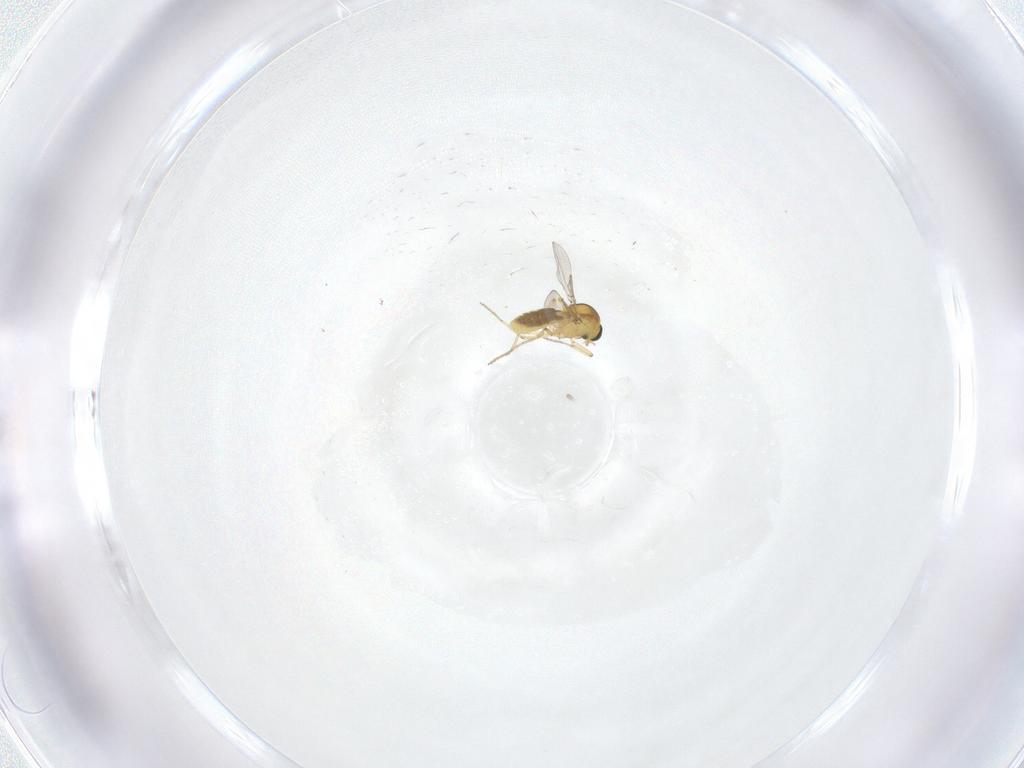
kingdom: Animalia
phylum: Arthropoda
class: Insecta
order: Diptera
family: Ceratopogonidae
